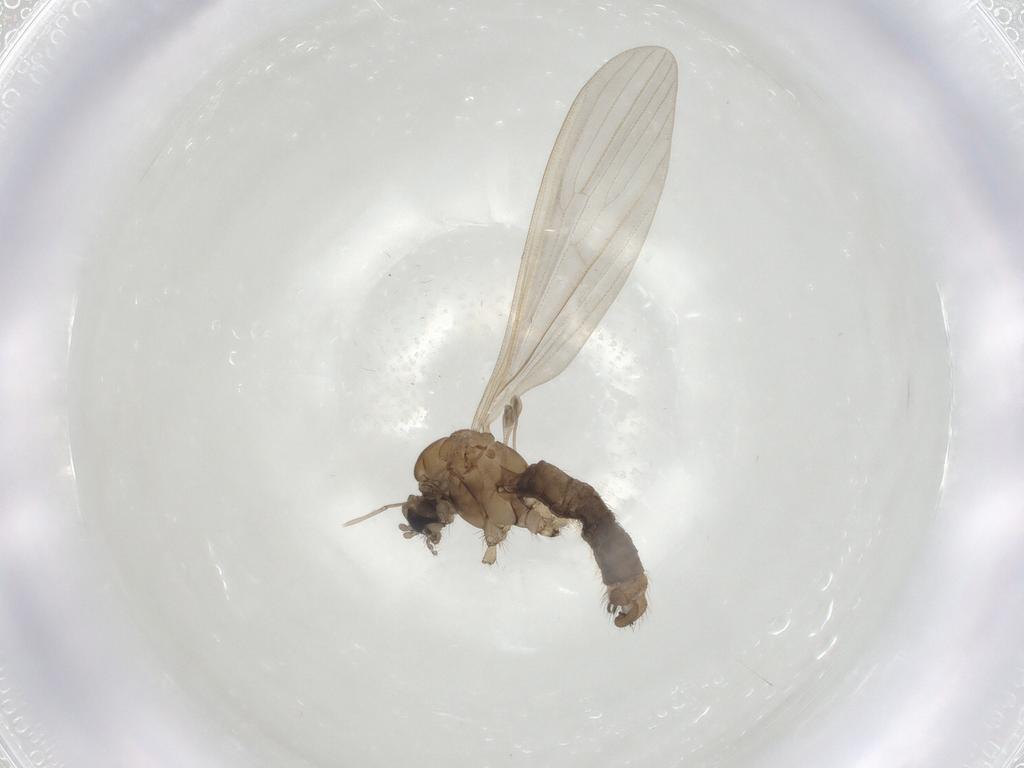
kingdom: Animalia
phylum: Arthropoda
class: Insecta
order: Diptera
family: Limoniidae
